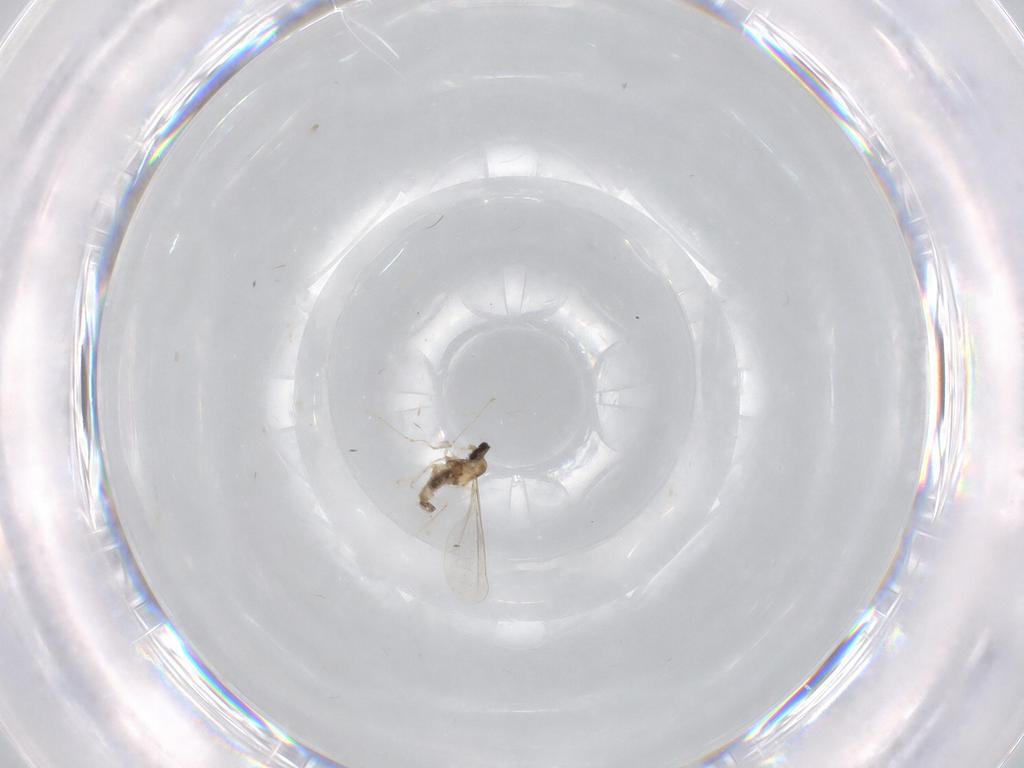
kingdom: Animalia
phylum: Arthropoda
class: Insecta
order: Diptera
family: Cecidomyiidae
